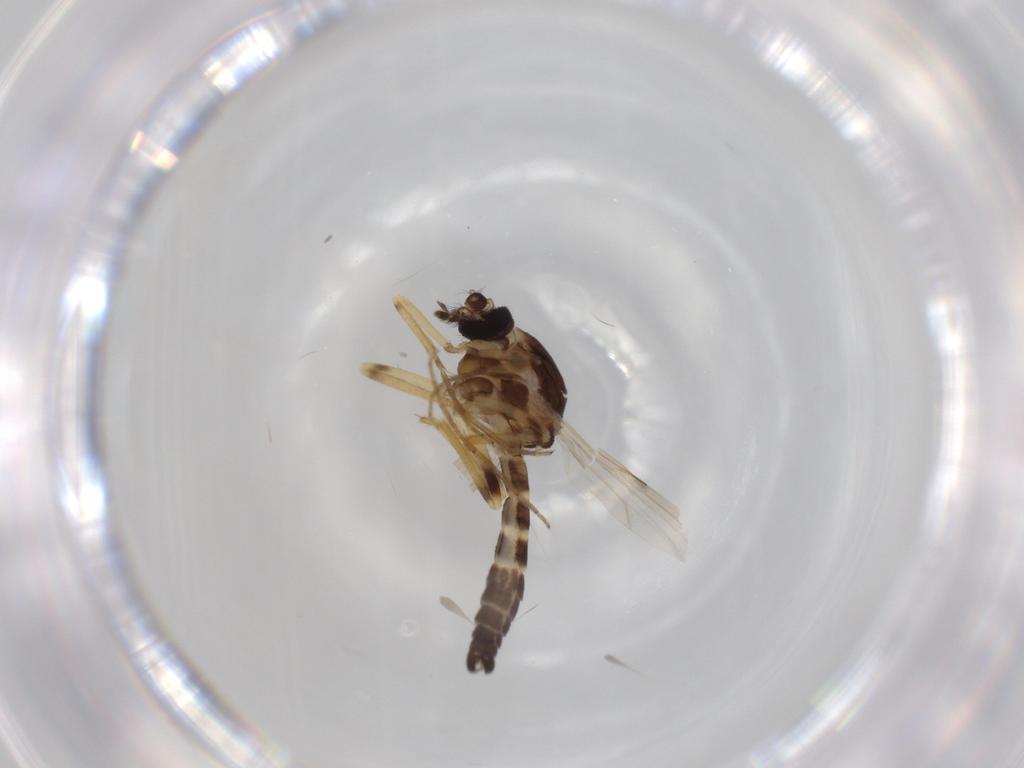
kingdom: Animalia
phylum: Arthropoda
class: Insecta
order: Diptera
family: Ceratopogonidae
